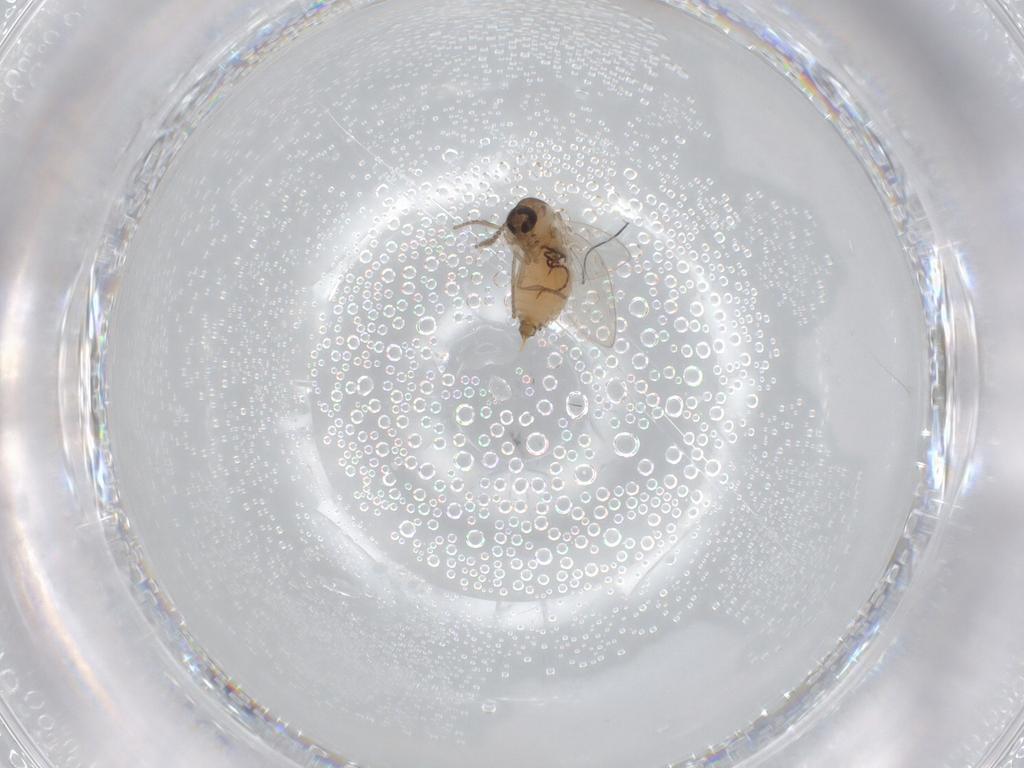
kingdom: Animalia
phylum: Arthropoda
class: Insecta
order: Diptera
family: Psychodidae
